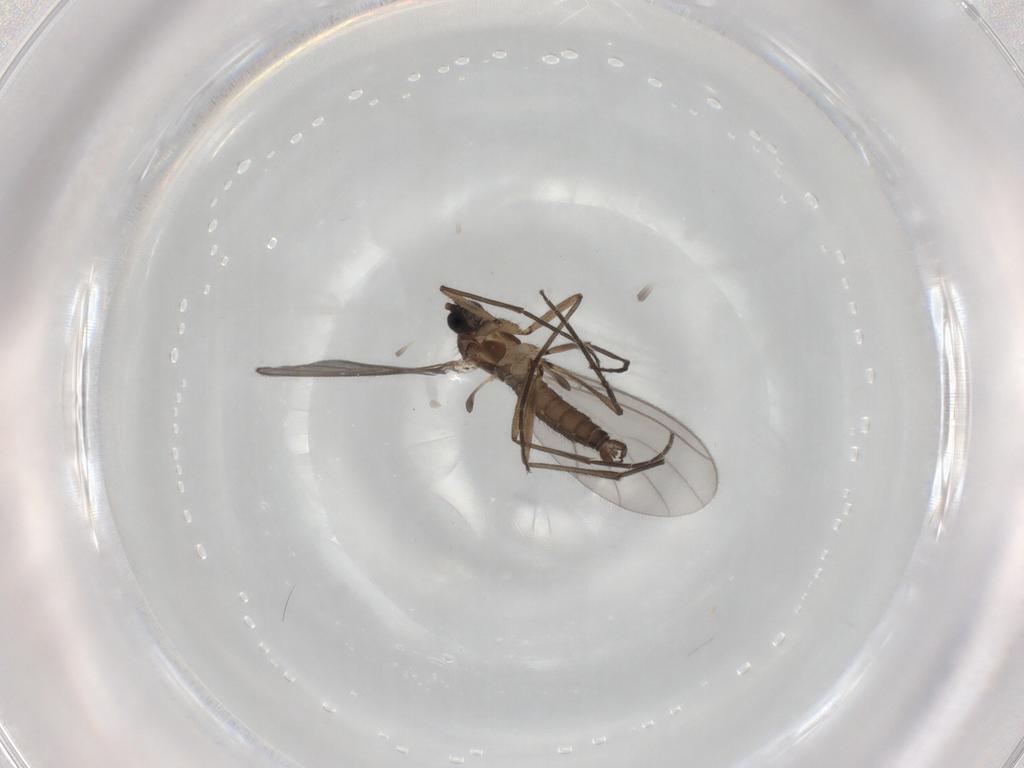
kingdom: Animalia
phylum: Arthropoda
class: Insecta
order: Diptera
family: Sciaridae
